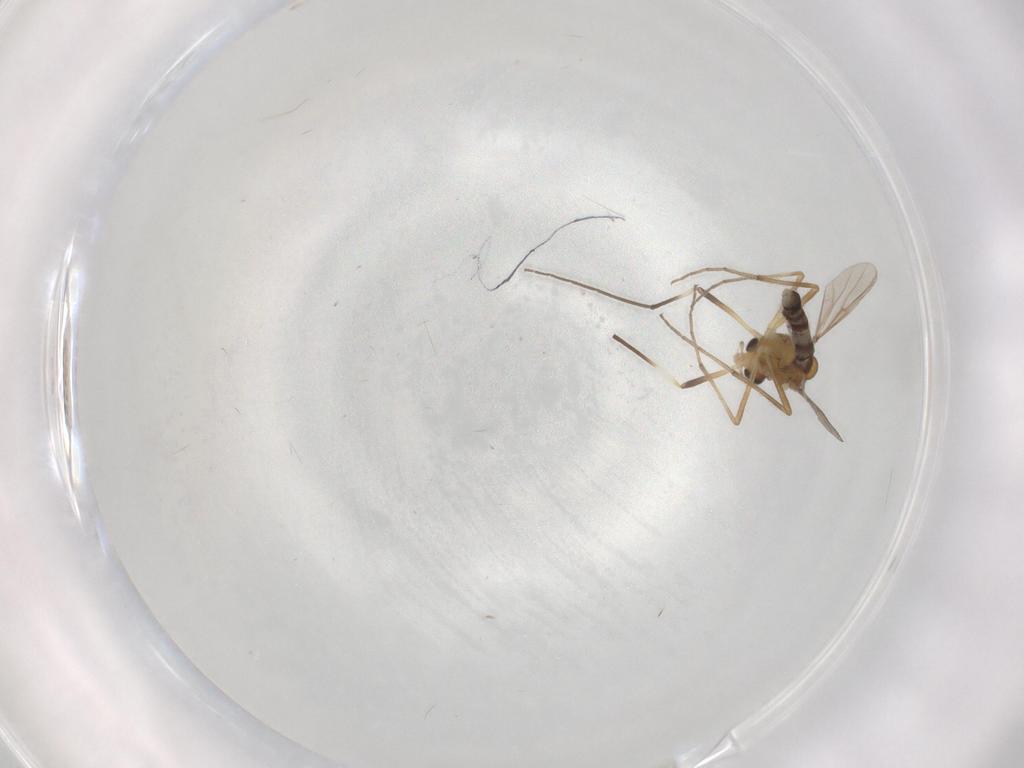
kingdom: Animalia
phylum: Arthropoda
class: Insecta
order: Diptera
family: Chironomidae
